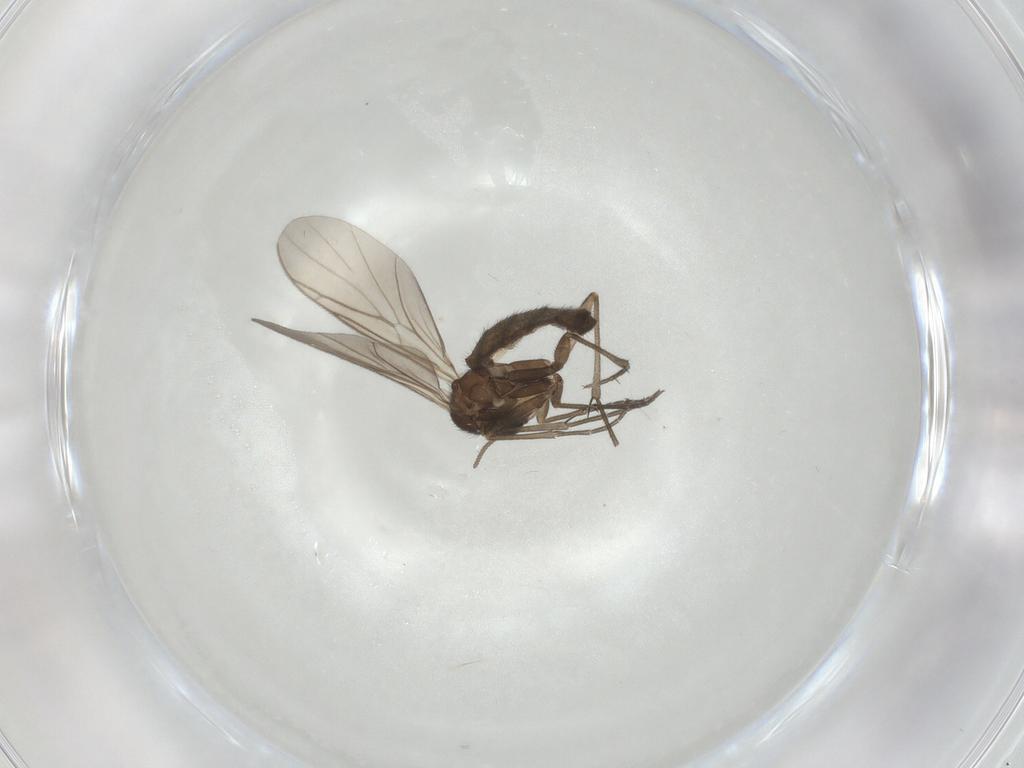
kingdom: Animalia
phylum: Arthropoda
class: Insecta
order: Diptera
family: Keroplatidae
